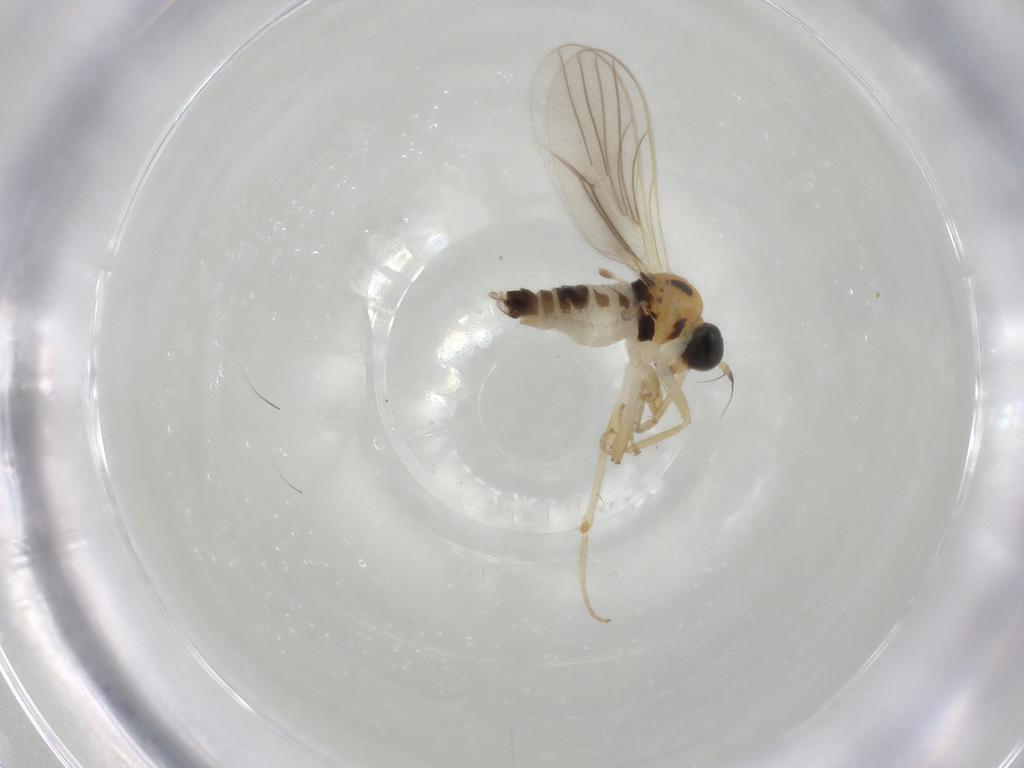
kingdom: Animalia
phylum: Arthropoda
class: Insecta
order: Diptera
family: Hybotidae
